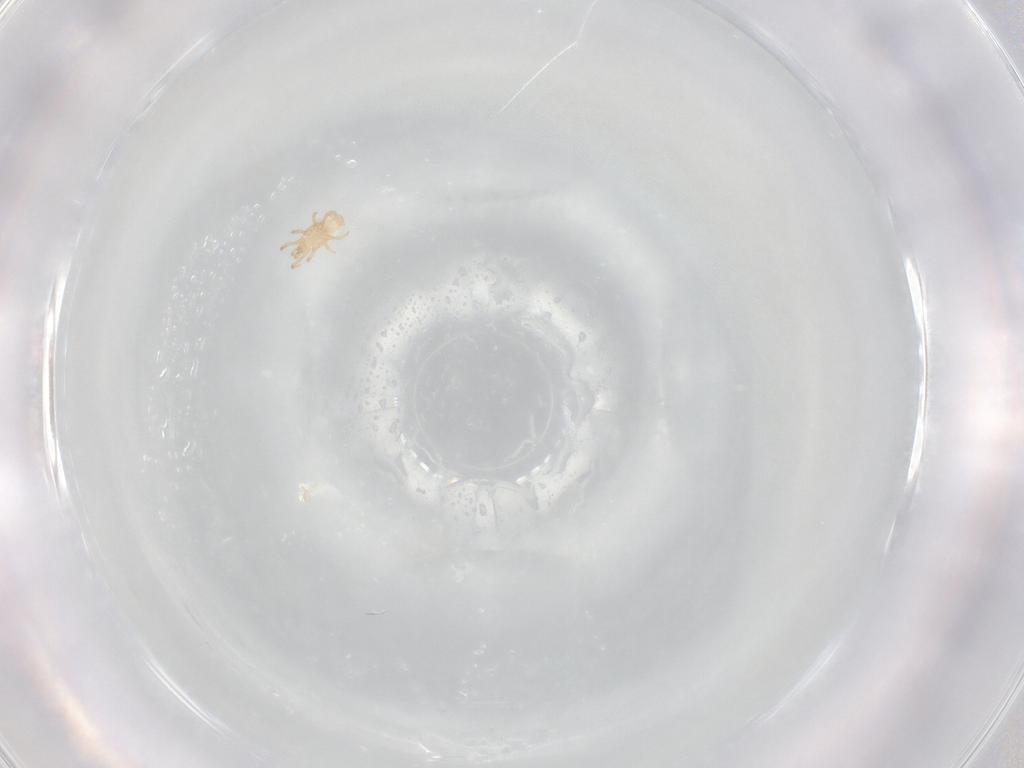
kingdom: Animalia
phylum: Arthropoda
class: Arachnida
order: Mesostigmata
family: Ascidae
